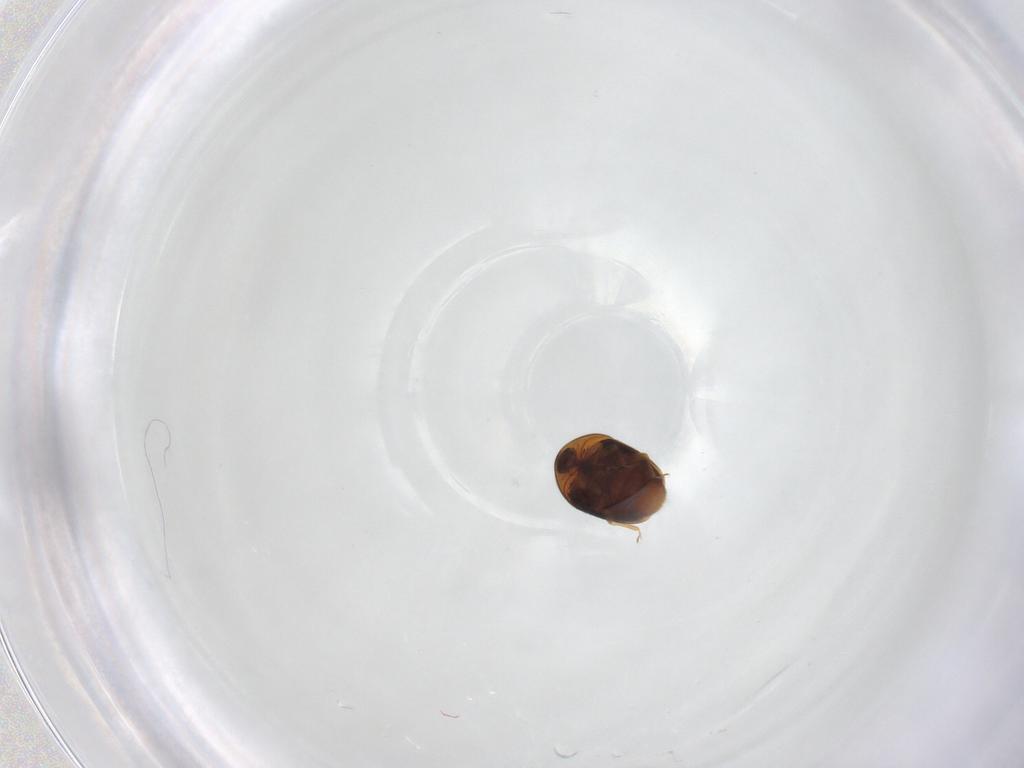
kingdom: Animalia
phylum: Arthropoda
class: Insecta
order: Coleoptera
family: Corylophidae
